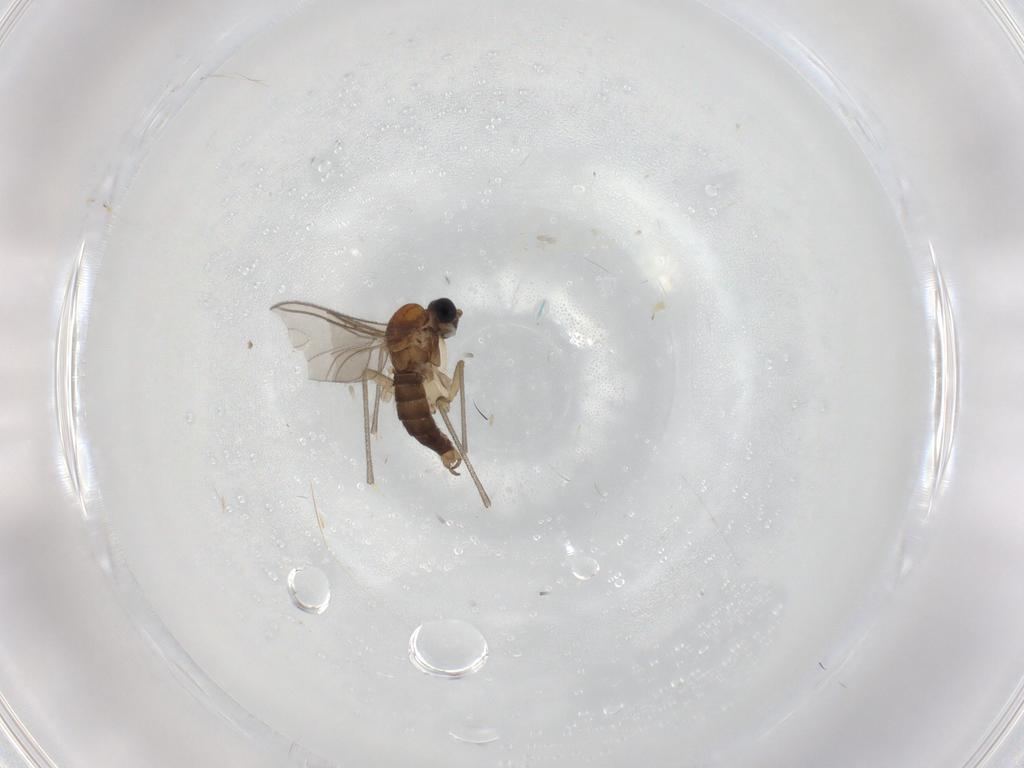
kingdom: Animalia
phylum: Arthropoda
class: Insecta
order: Diptera
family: Sciaridae
